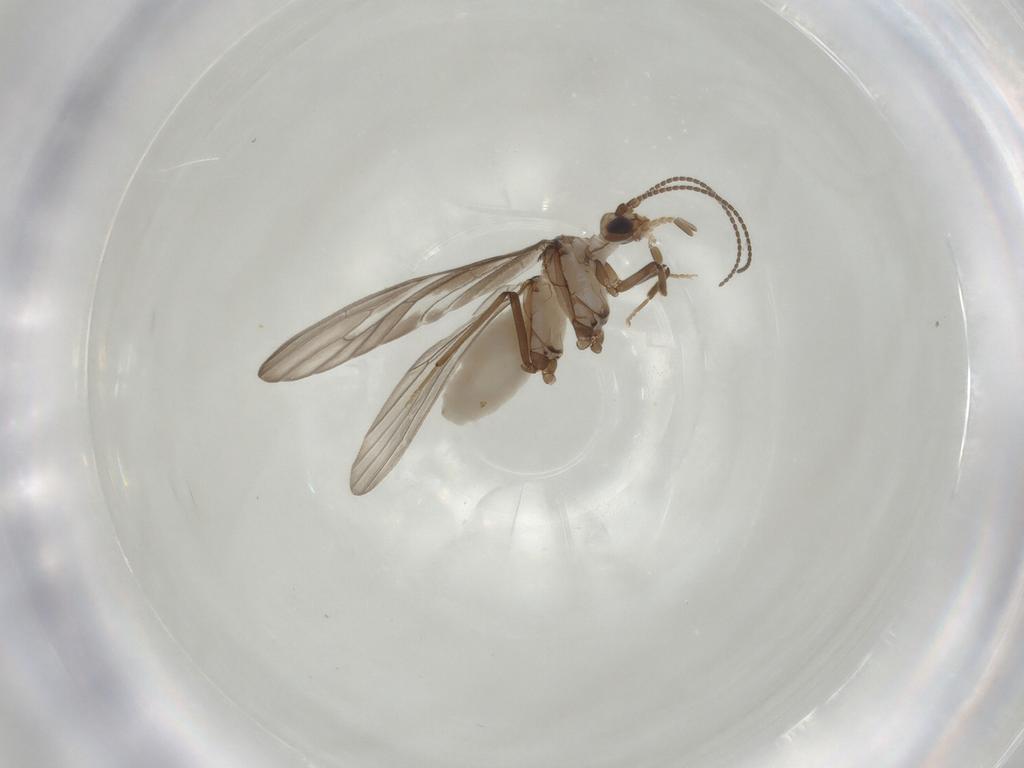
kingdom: Animalia
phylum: Arthropoda
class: Insecta
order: Neuroptera
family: Coniopterygidae
